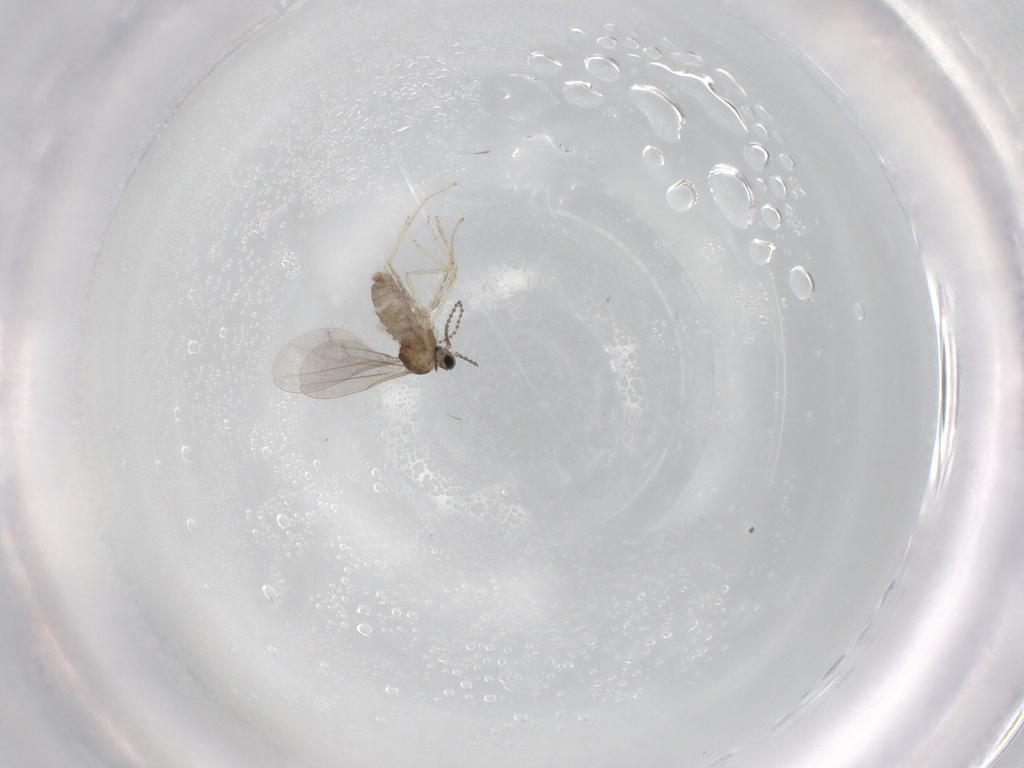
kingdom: Animalia
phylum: Arthropoda
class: Insecta
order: Diptera
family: Cecidomyiidae
